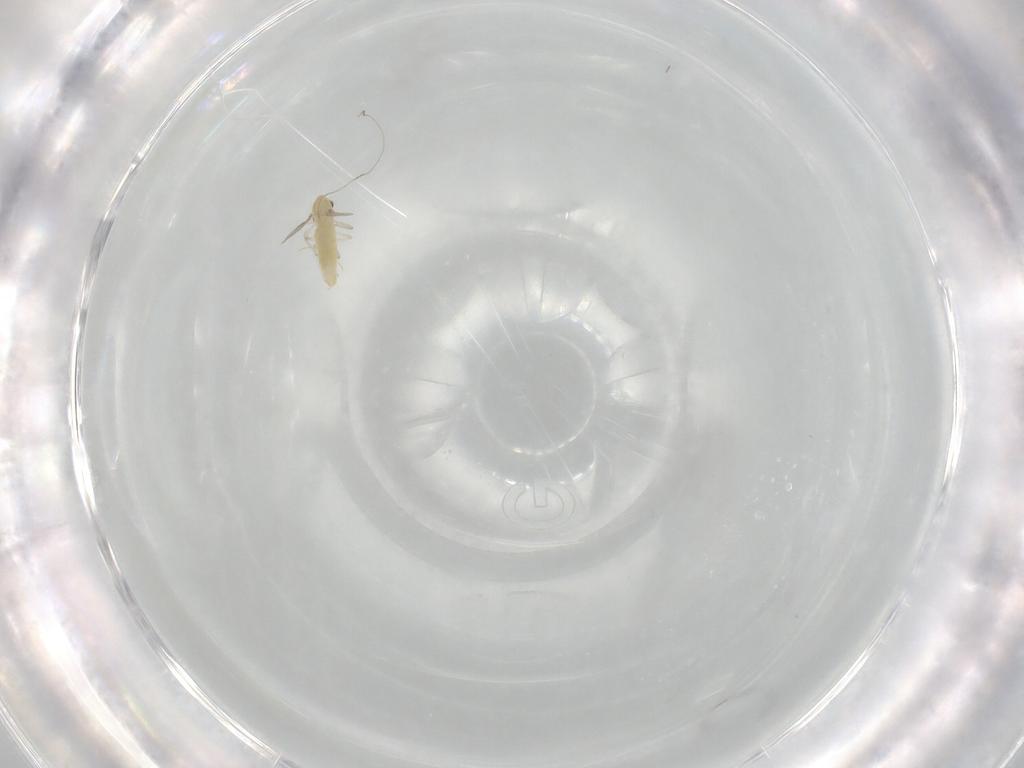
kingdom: Animalia
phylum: Arthropoda
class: Insecta
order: Diptera
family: Chironomidae
